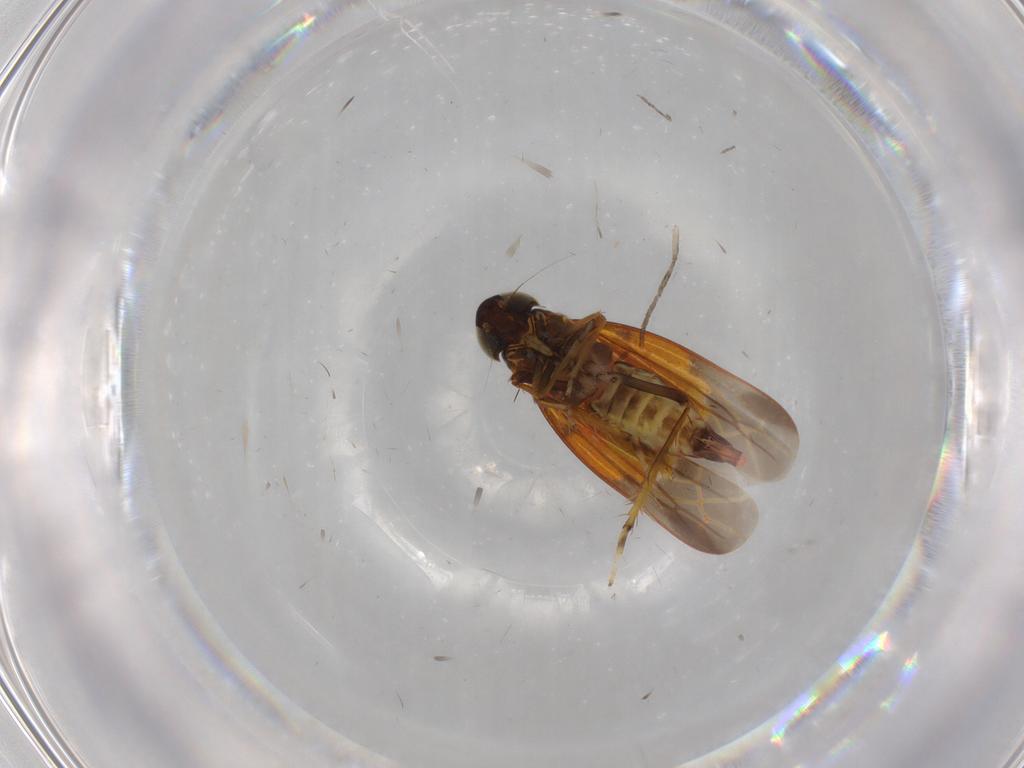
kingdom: Animalia
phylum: Arthropoda
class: Insecta
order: Hemiptera
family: Cicadellidae
